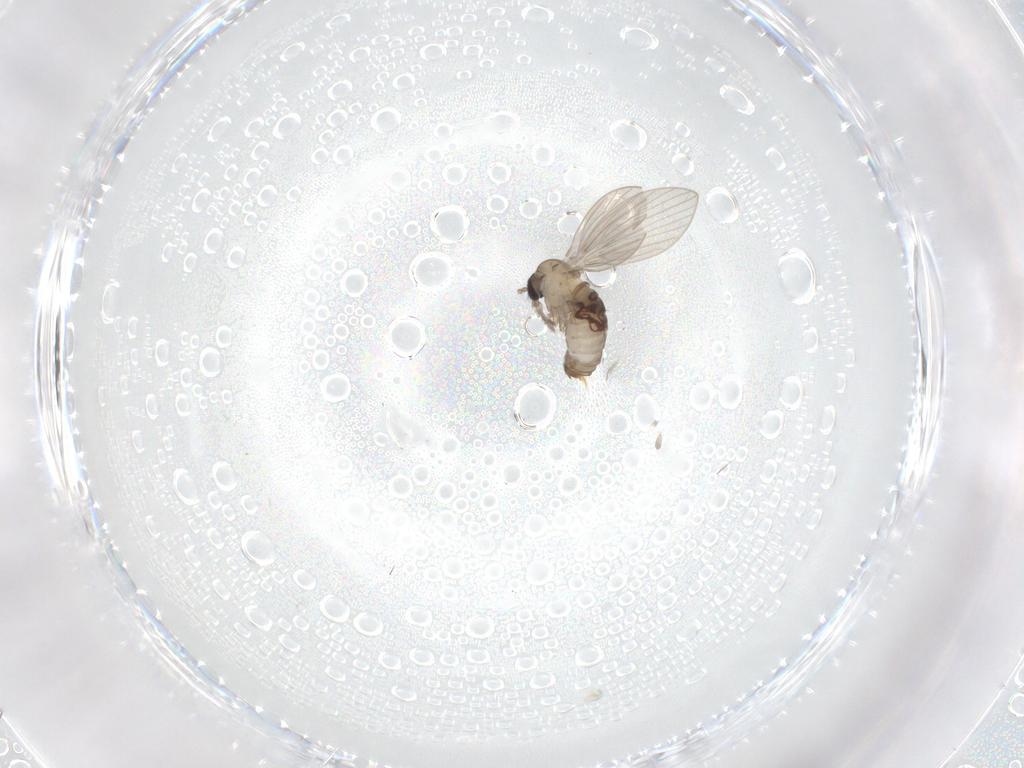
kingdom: Animalia
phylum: Arthropoda
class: Insecta
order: Diptera
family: Psychodidae
